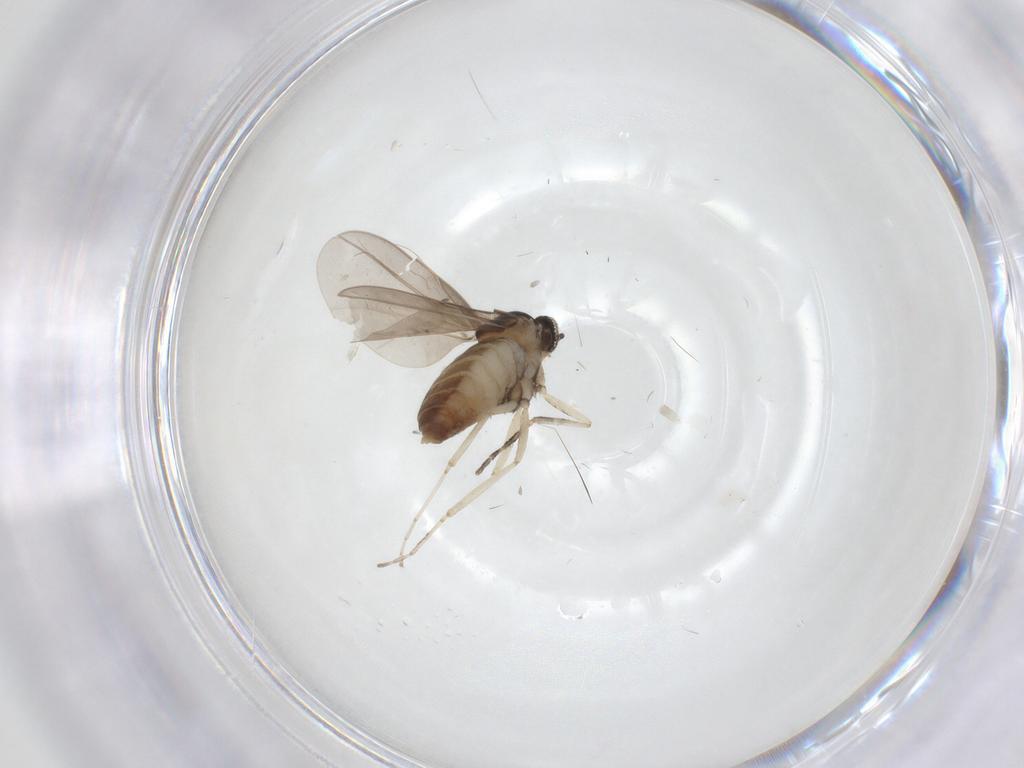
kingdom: Animalia
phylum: Arthropoda
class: Insecta
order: Diptera
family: Cecidomyiidae
